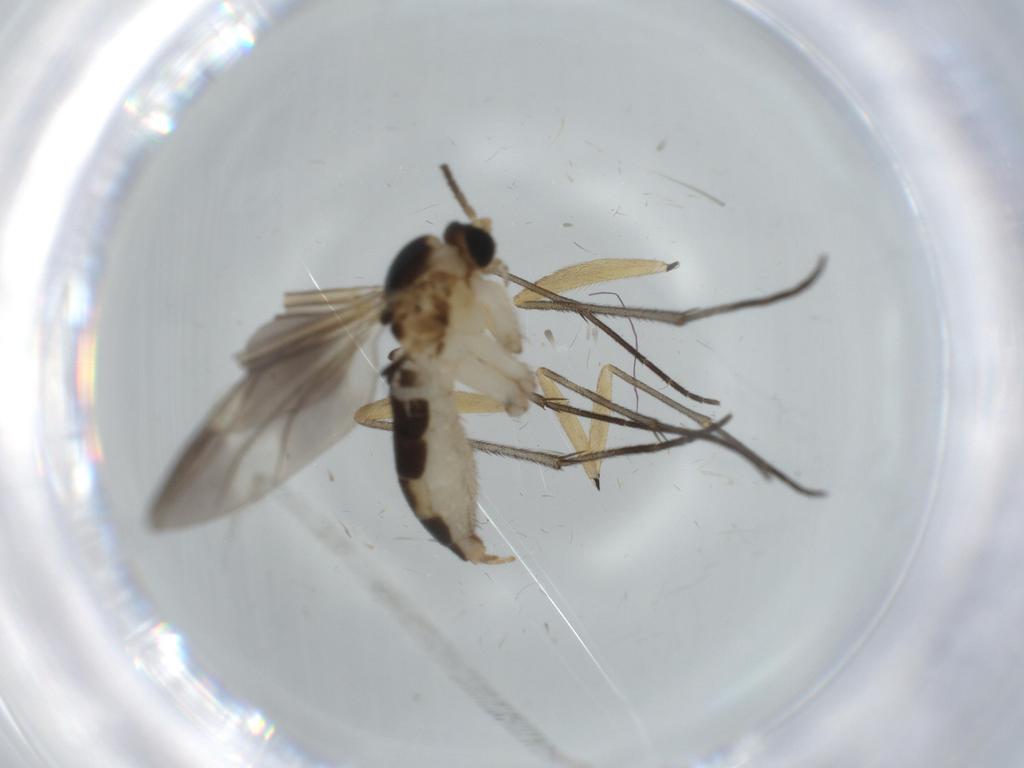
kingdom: Animalia
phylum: Arthropoda
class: Insecta
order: Diptera
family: Sciaridae
